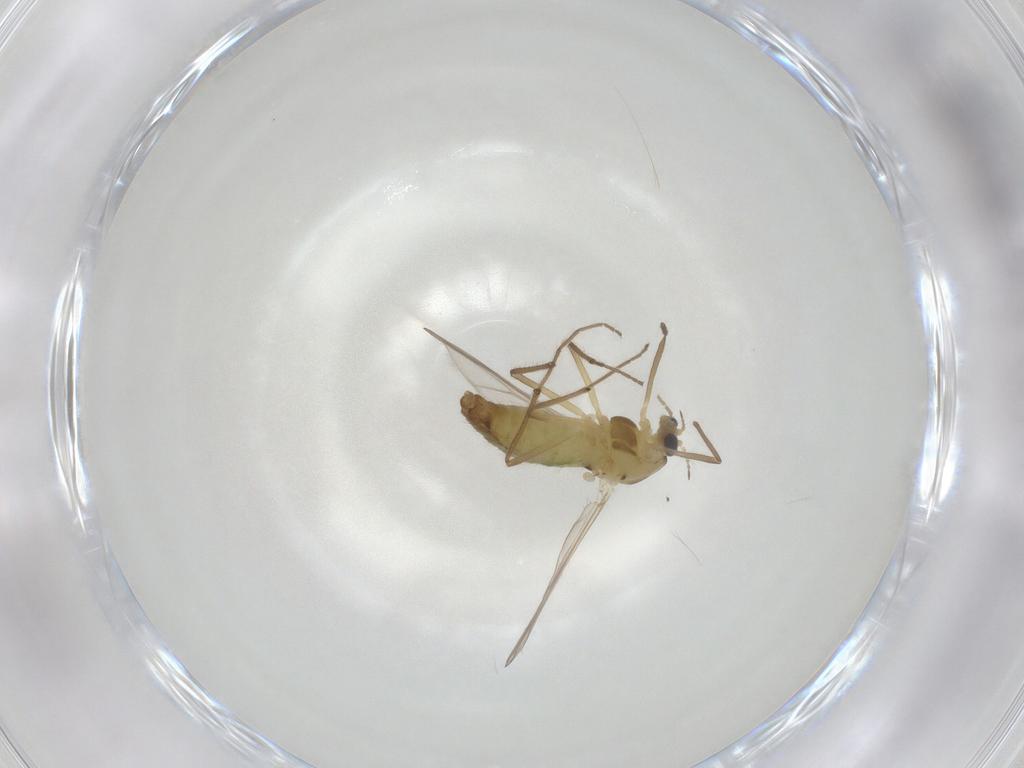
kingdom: Animalia
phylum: Arthropoda
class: Insecta
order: Diptera
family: Chironomidae
